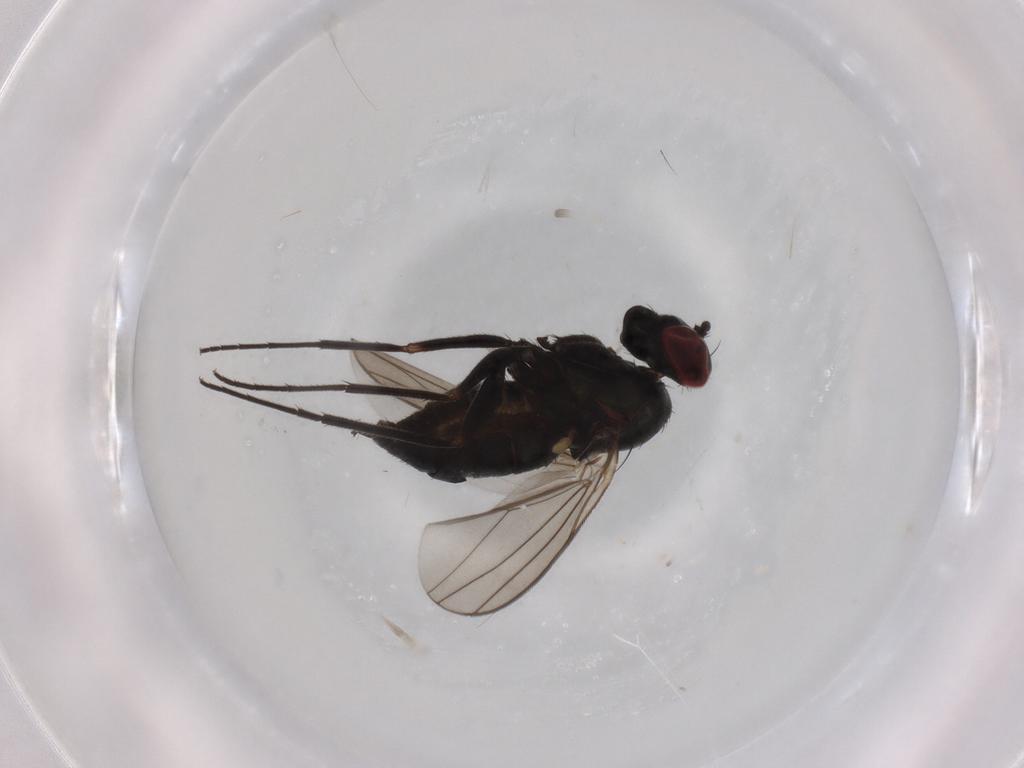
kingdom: Animalia
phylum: Arthropoda
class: Insecta
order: Diptera
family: Dolichopodidae
